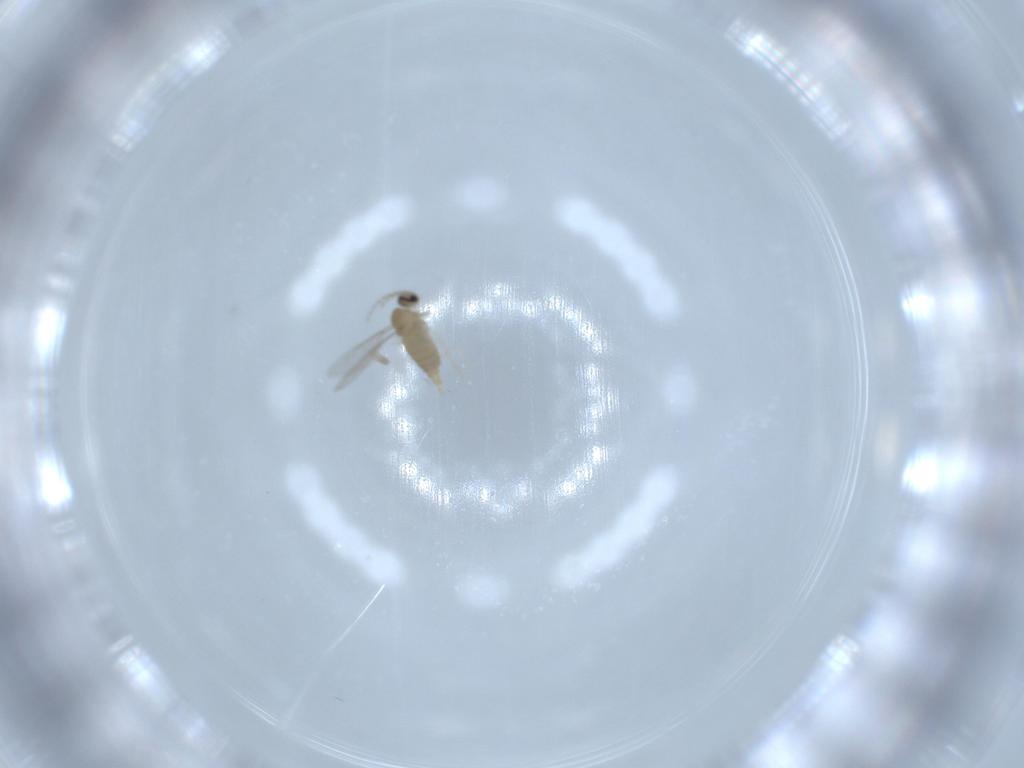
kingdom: Animalia
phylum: Arthropoda
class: Insecta
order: Diptera
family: Cecidomyiidae
